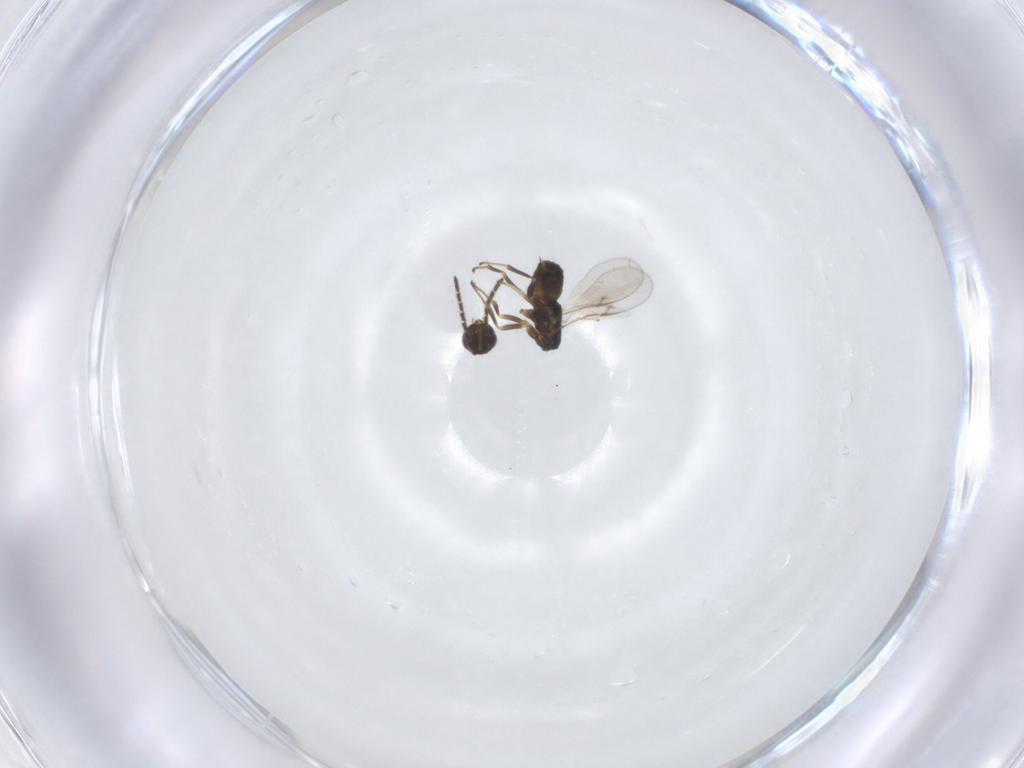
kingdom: Animalia
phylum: Arthropoda
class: Insecta
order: Hymenoptera
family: Encyrtidae
